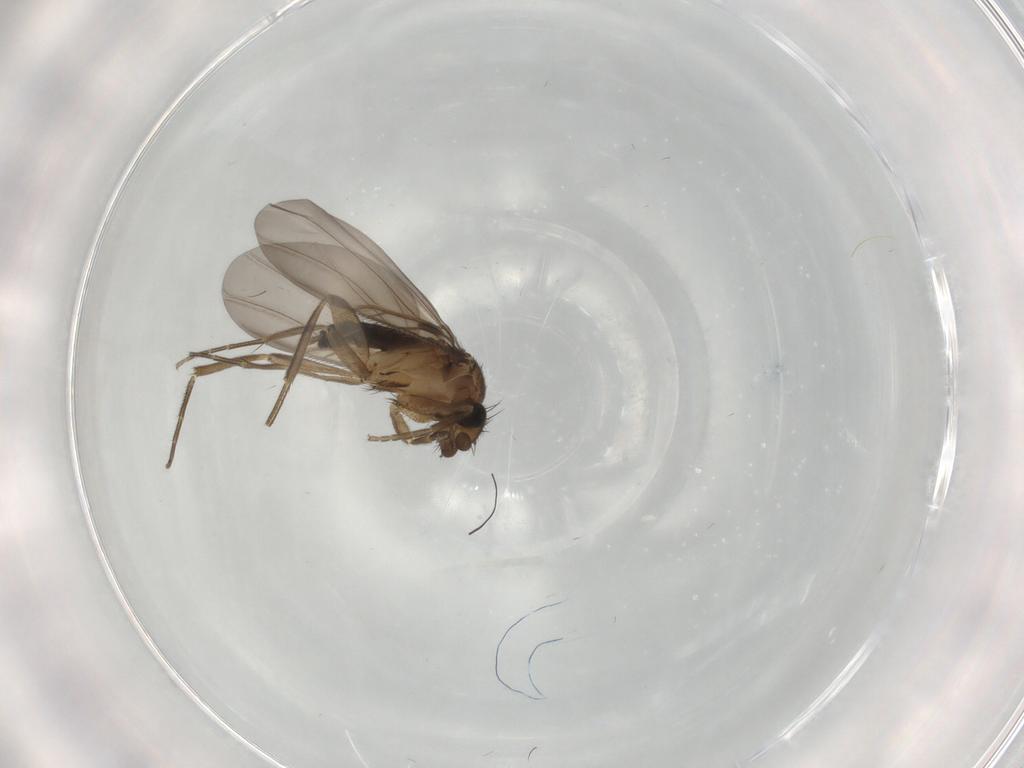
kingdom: Animalia
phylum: Arthropoda
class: Insecta
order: Diptera
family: Phoridae
